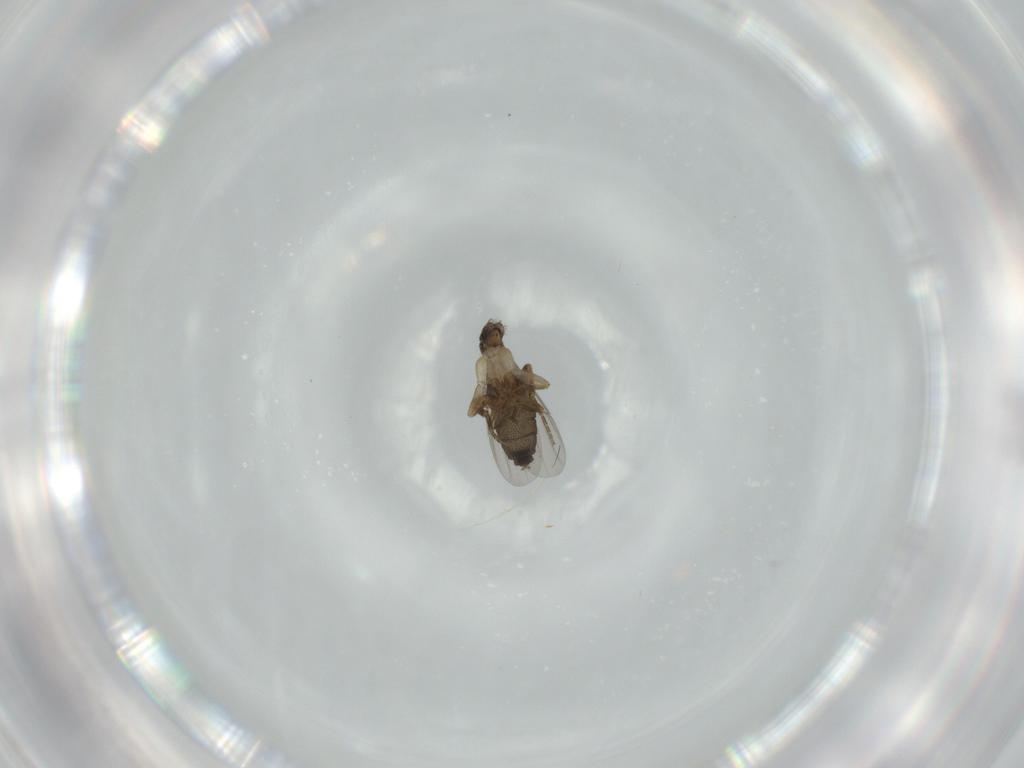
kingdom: Animalia
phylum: Arthropoda
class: Insecta
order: Diptera
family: Phoridae
